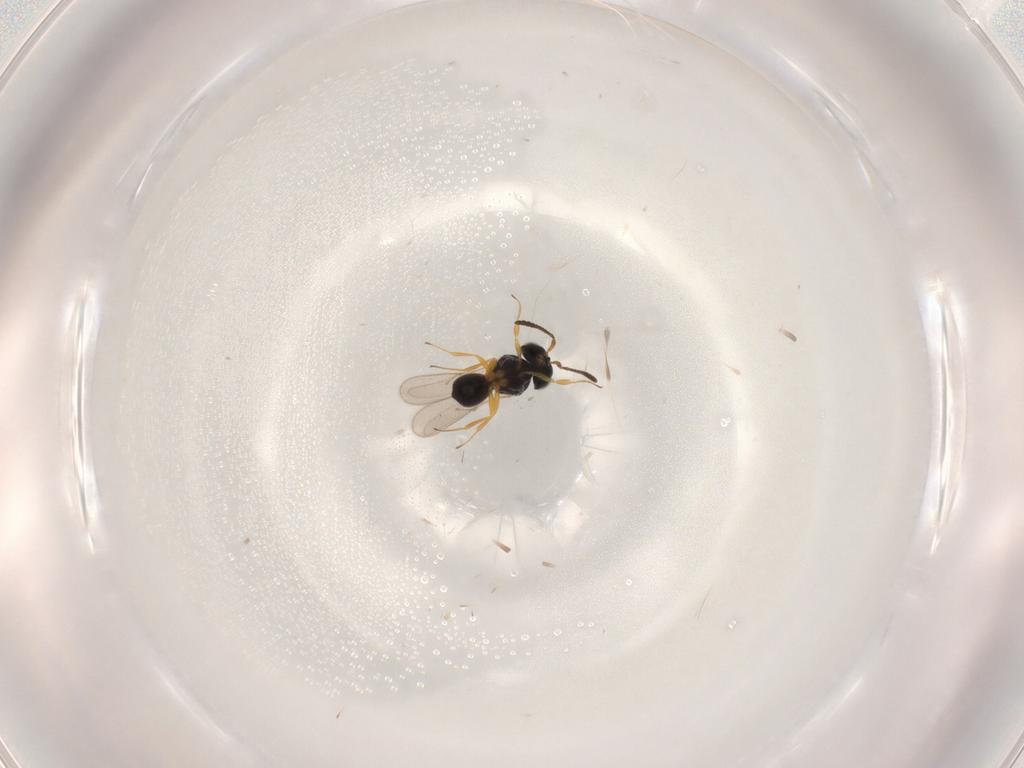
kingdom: Animalia
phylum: Arthropoda
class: Insecta
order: Hymenoptera
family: Scelionidae
